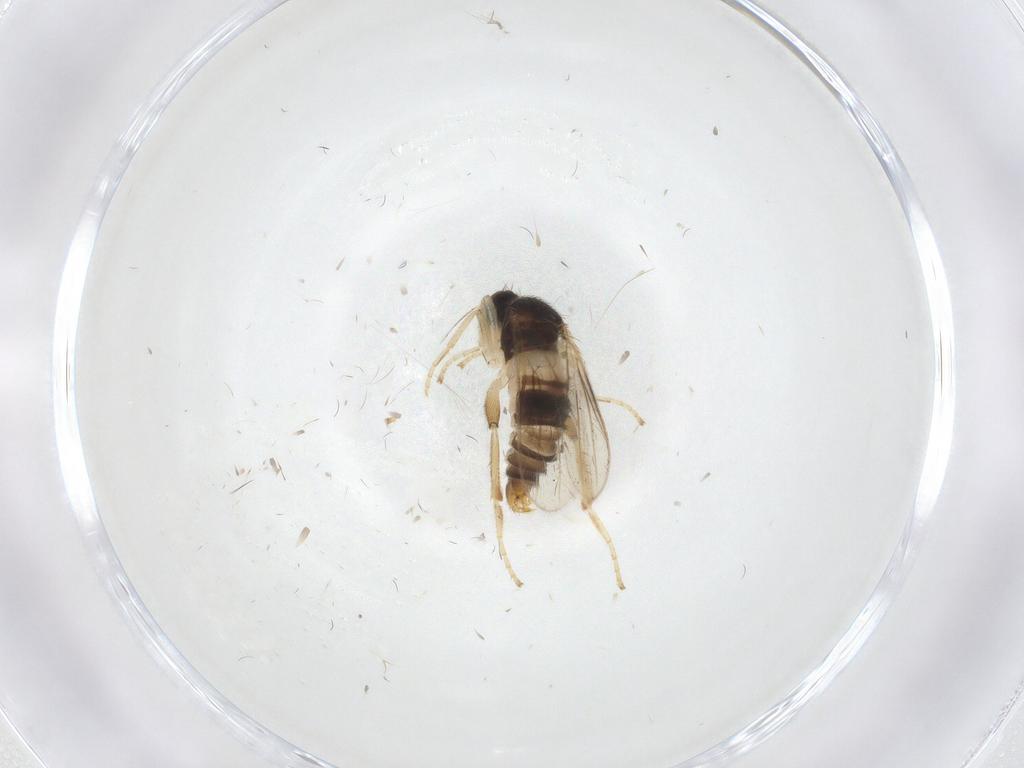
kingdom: Animalia
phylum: Arthropoda
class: Insecta
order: Diptera
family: Hybotidae
